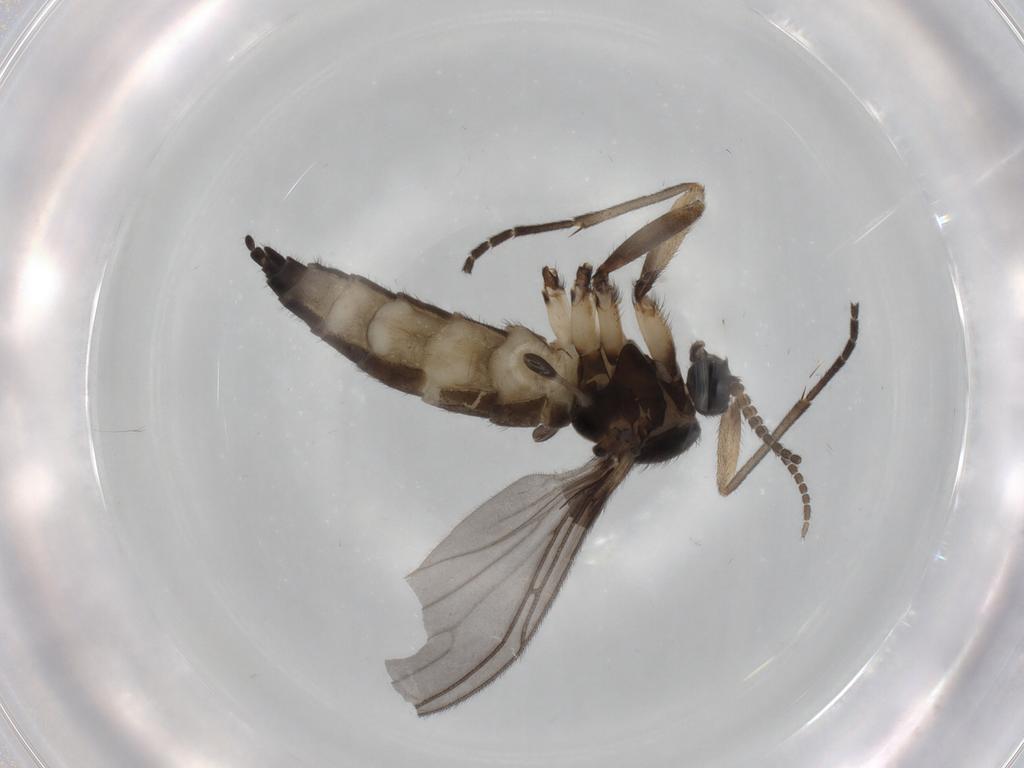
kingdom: Animalia
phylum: Arthropoda
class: Insecta
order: Diptera
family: Sciaridae
